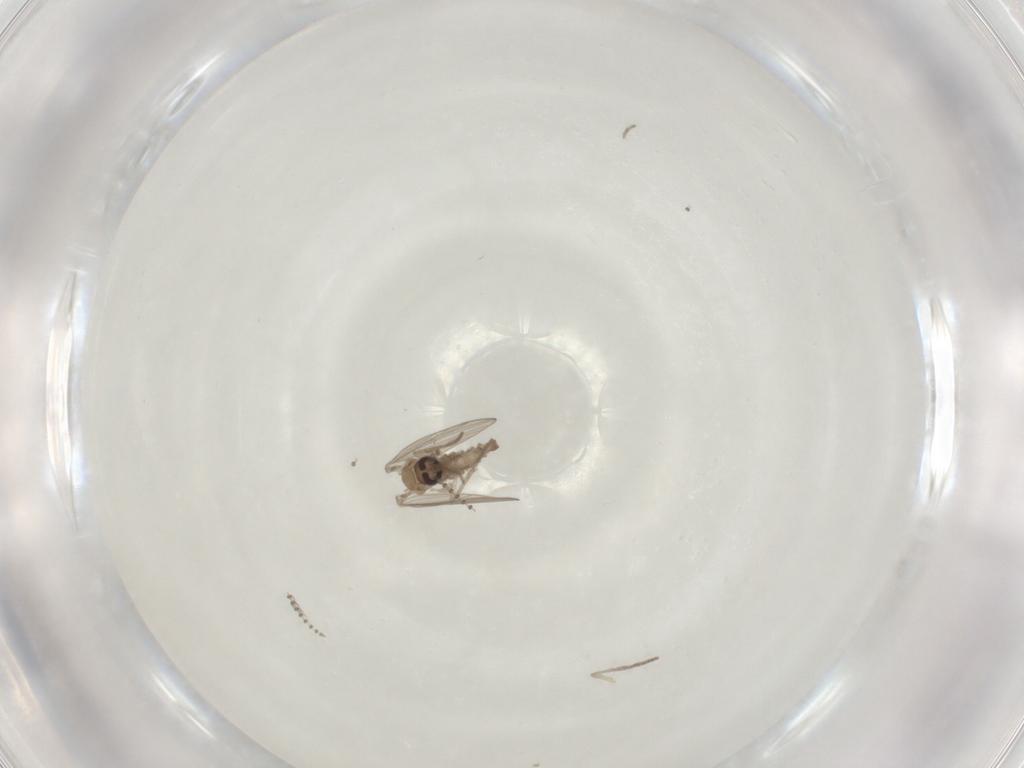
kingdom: Animalia
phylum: Arthropoda
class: Insecta
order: Diptera
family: Psychodidae
